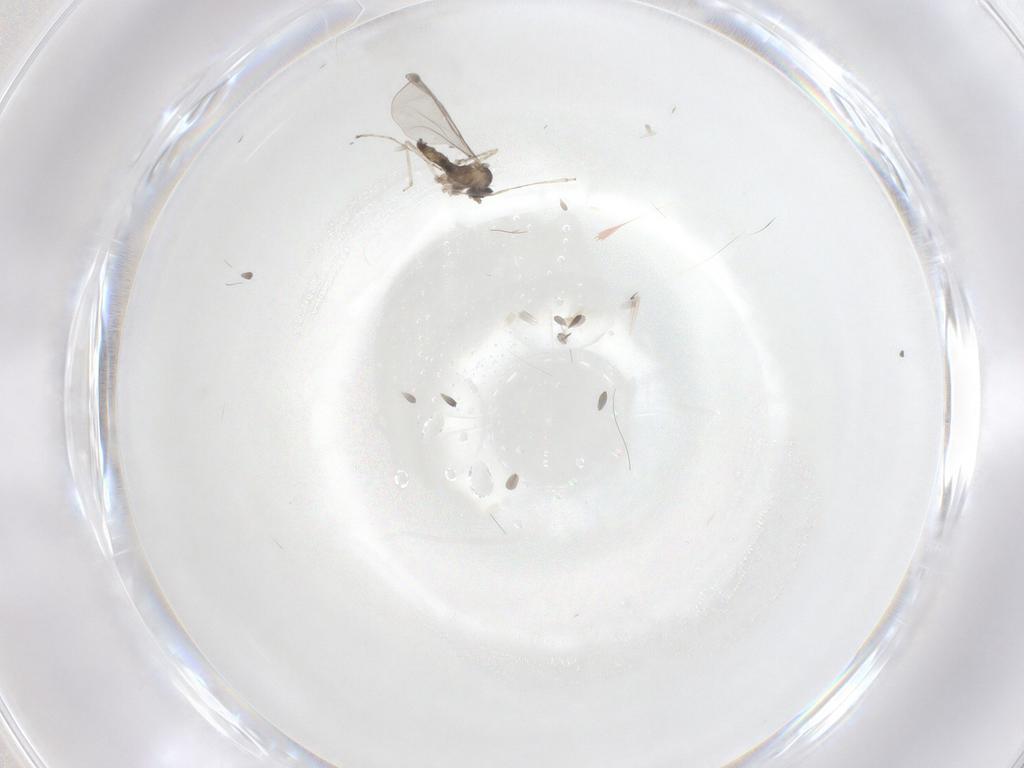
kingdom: Animalia
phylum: Arthropoda
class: Insecta
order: Diptera
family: Cecidomyiidae
